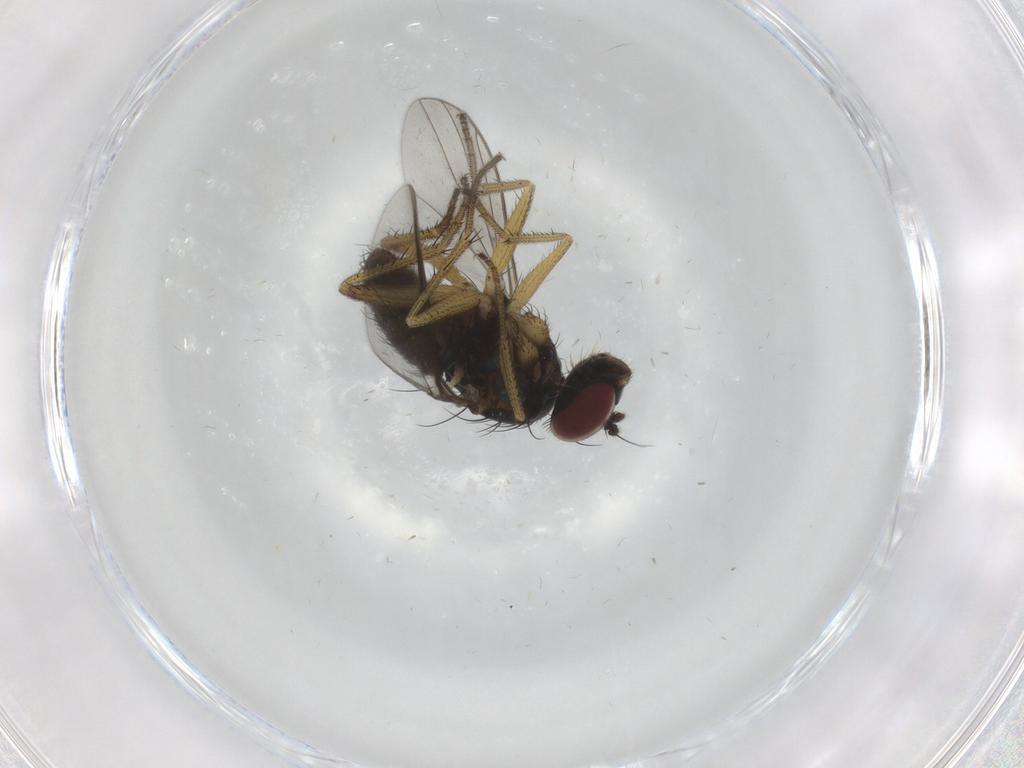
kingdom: Animalia
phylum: Arthropoda
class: Insecta
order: Diptera
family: Dolichopodidae
